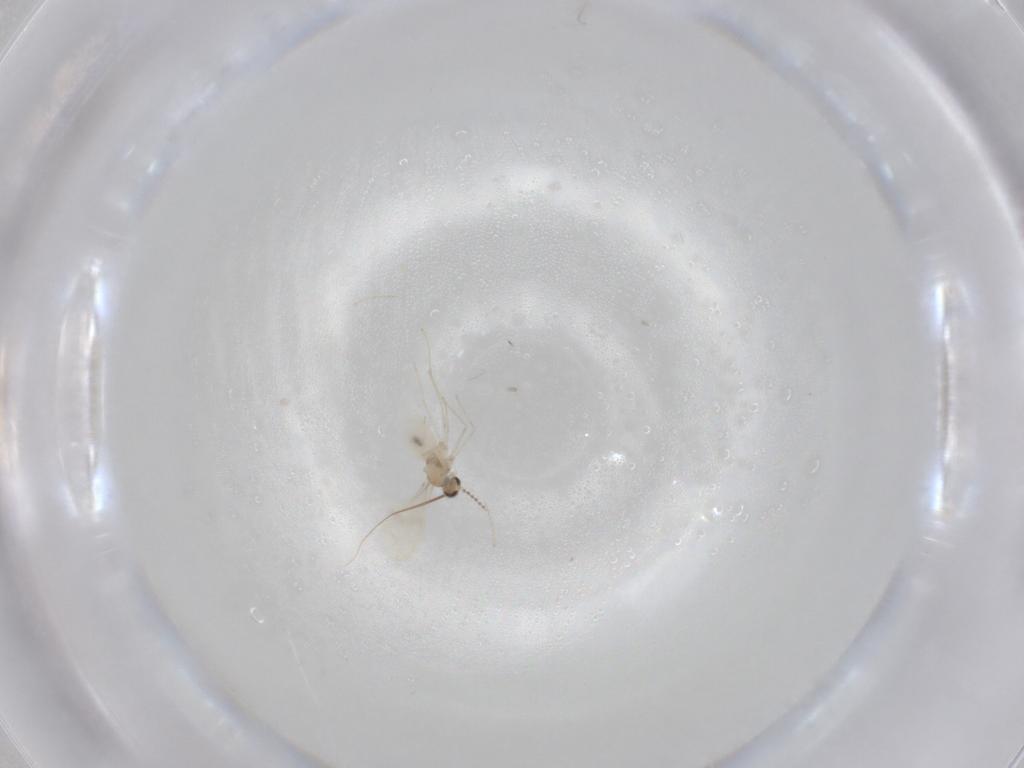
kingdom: Animalia
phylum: Arthropoda
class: Insecta
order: Diptera
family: Cecidomyiidae
